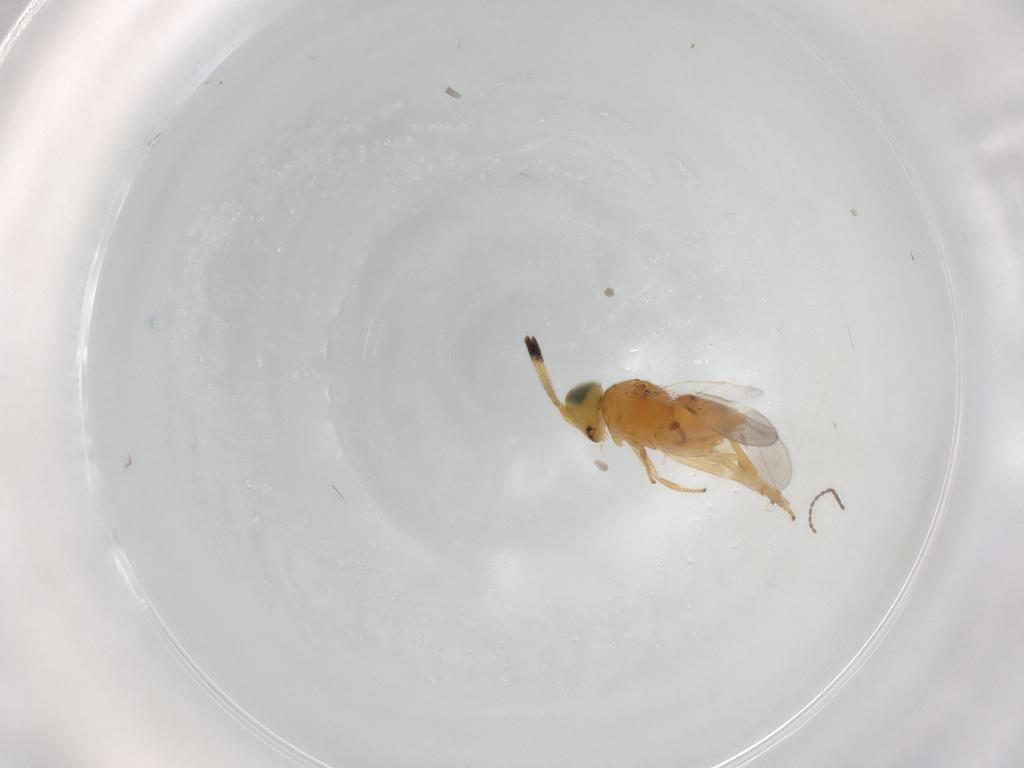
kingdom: Animalia
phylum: Arthropoda
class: Insecta
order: Hymenoptera
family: Encyrtidae
